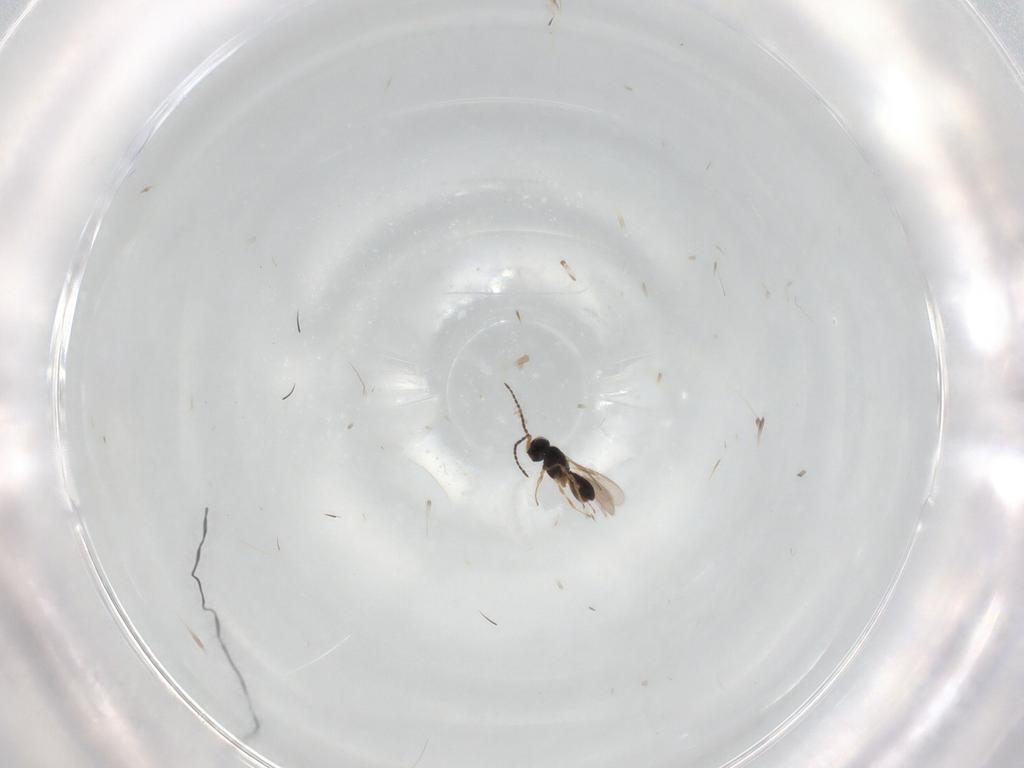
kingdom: Animalia
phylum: Arthropoda
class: Insecta
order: Hymenoptera
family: Scelionidae
